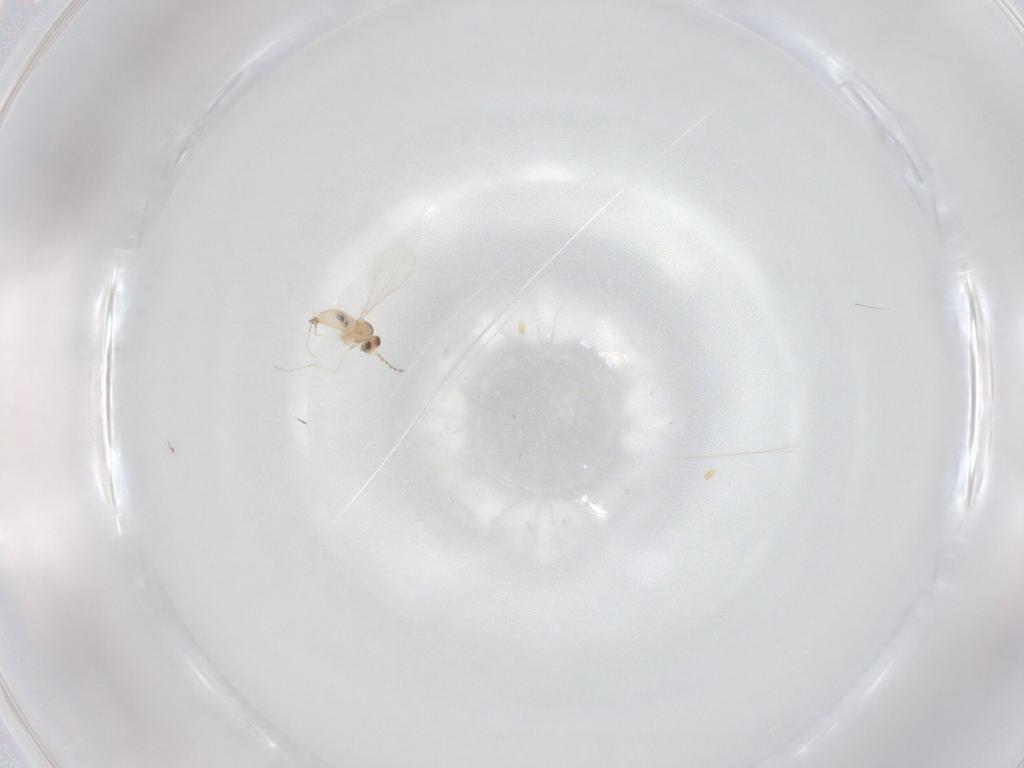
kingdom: Animalia
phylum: Arthropoda
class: Insecta
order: Diptera
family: Cecidomyiidae
